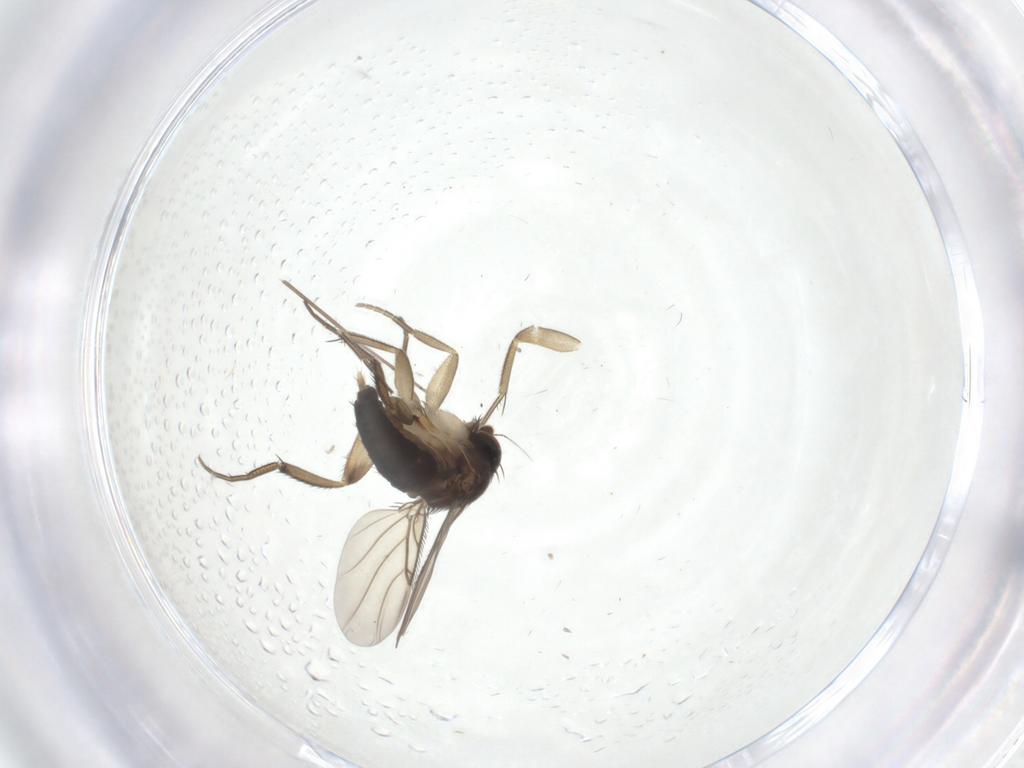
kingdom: Animalia
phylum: Arthropoda
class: Insecta
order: Diptera
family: Phoridae
